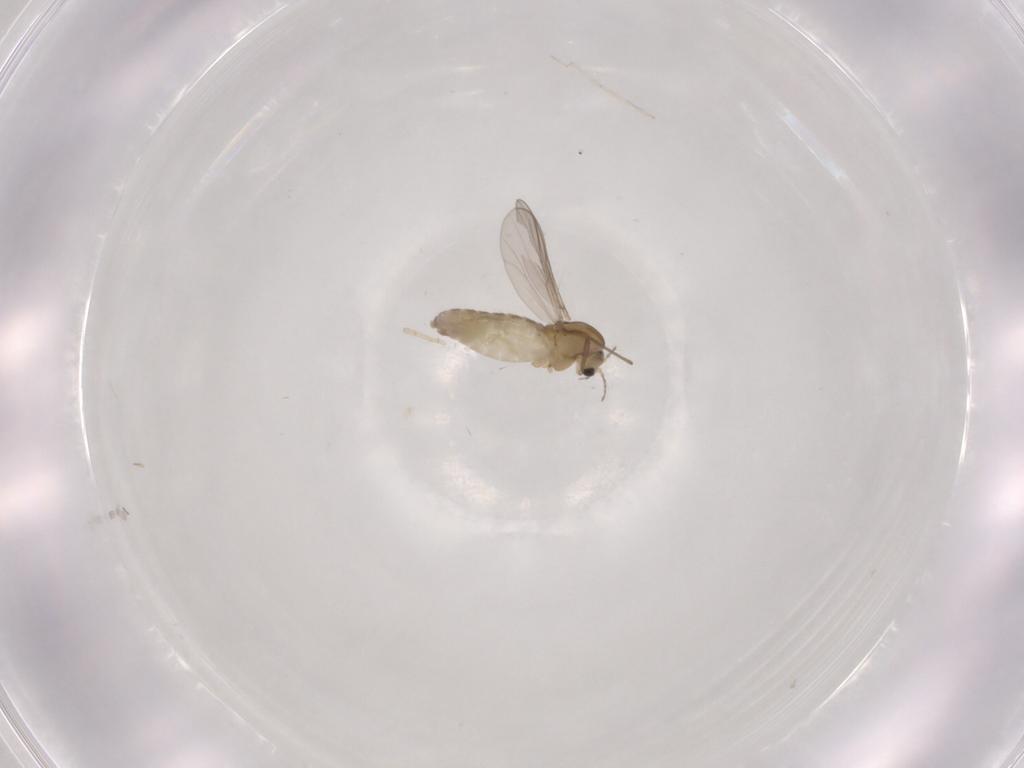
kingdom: Animalia
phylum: Arthropoda
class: Insecta
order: Diptera
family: Chironomidae
